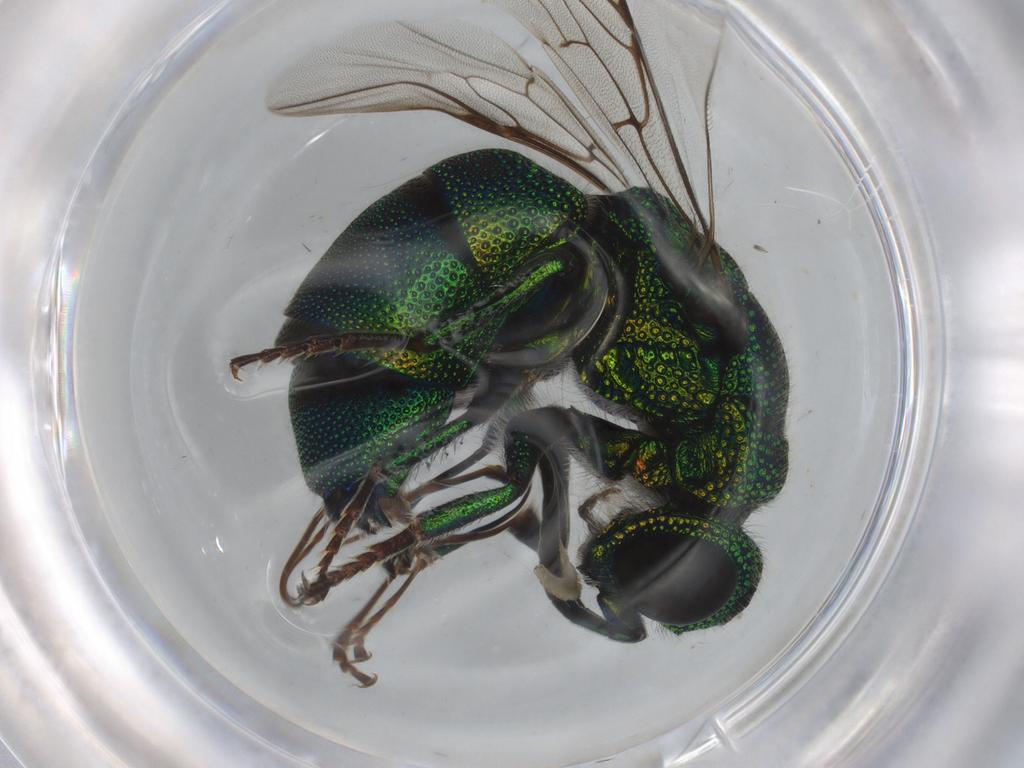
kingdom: Animalia
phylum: Arthropoda
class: Insecta
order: Hymenoptera
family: Chrysididae
